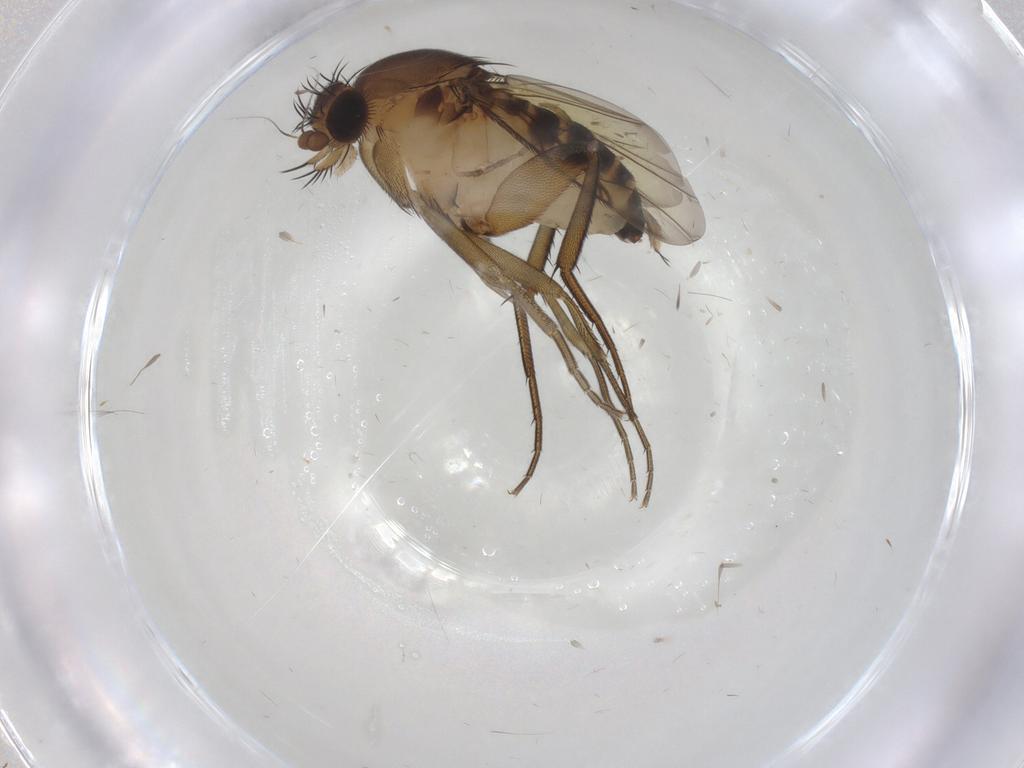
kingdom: Animalia
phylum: Arthropoda
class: Insecta
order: Diptera
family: Phoridae
